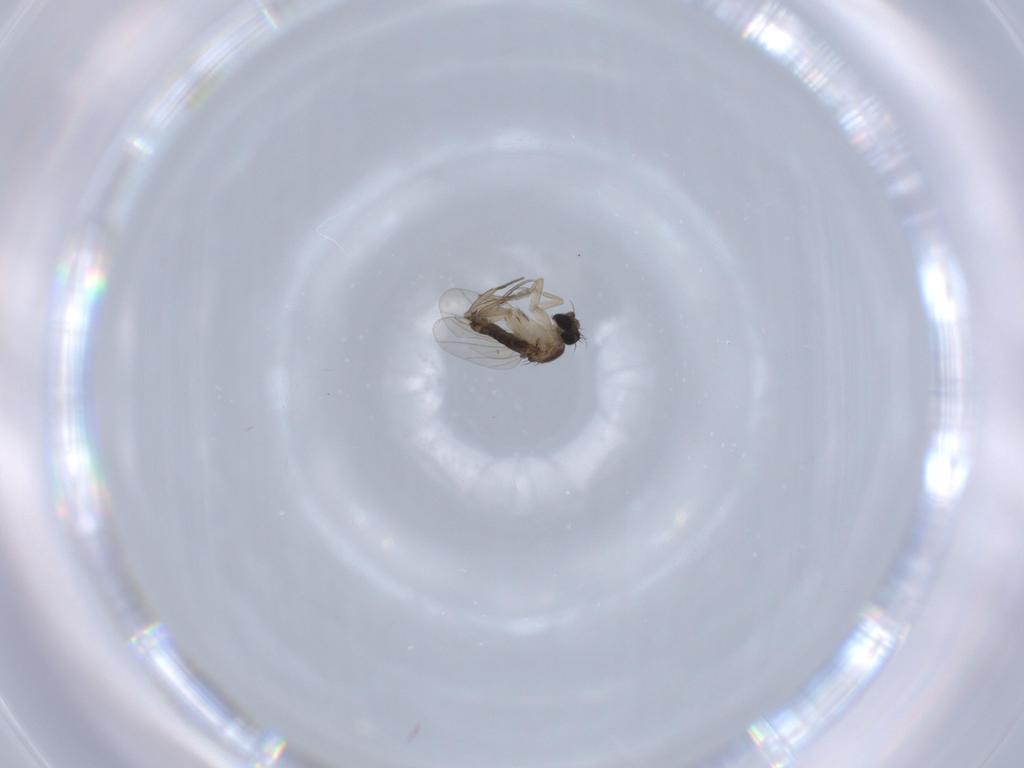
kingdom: Animalia
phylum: Arthropoda
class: Insecta
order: Diptera
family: Phoridae
